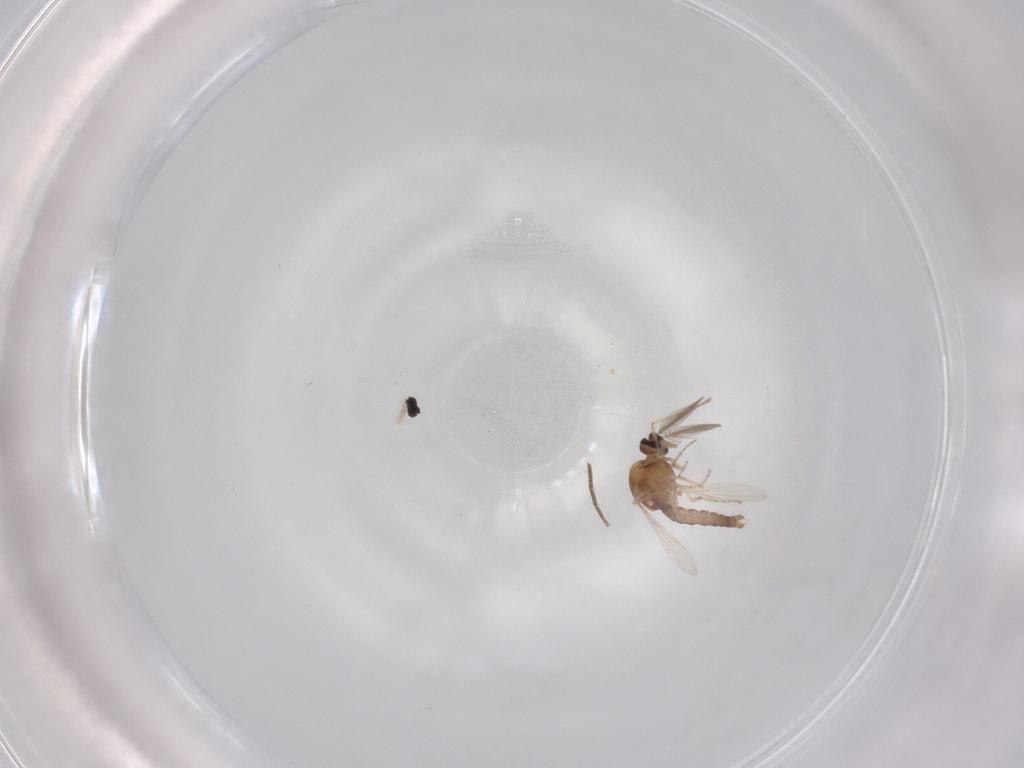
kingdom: Animalia
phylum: Arthropoda
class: Insecta
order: Diptera
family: Ceratopogonidae
